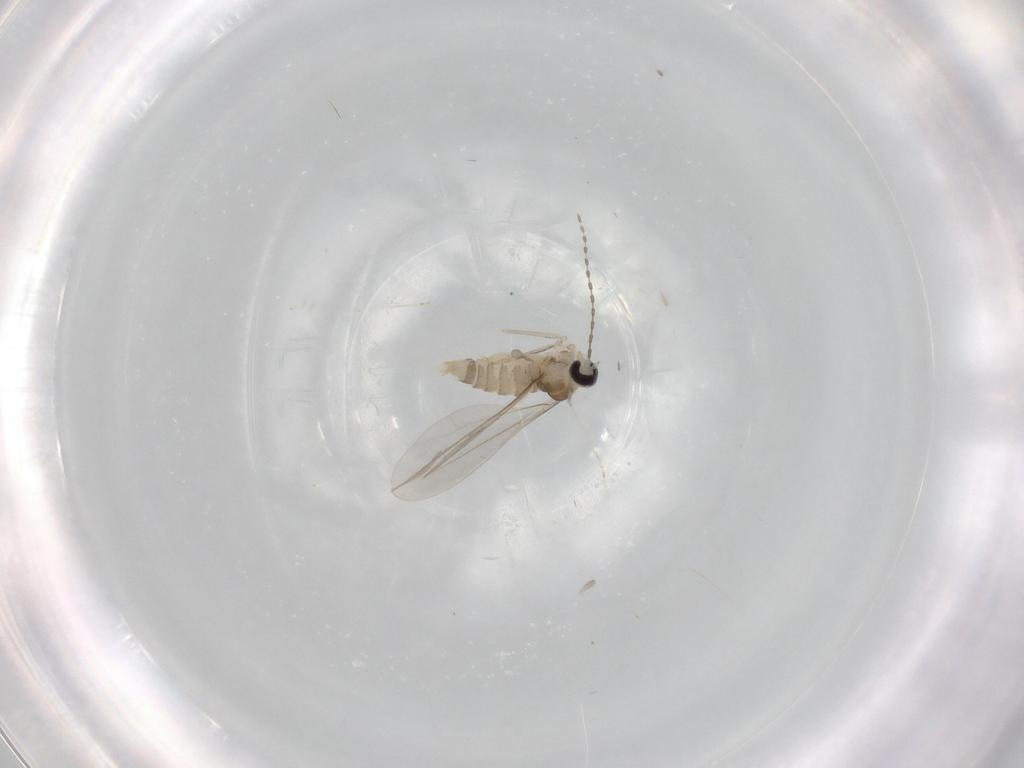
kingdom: Animalia
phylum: Arthropoda
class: Insecta
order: Diptera
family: Cecidomyiidae
